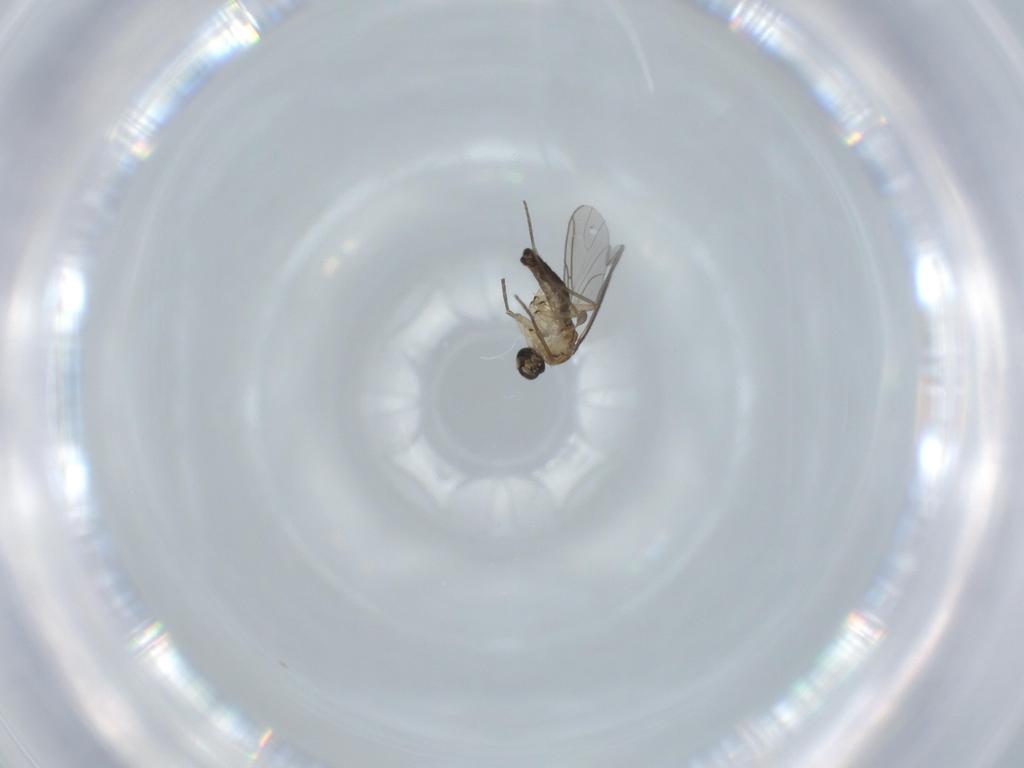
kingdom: Animalia
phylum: Arthropoda
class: Insecta
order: Diptera
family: Sciaridae
